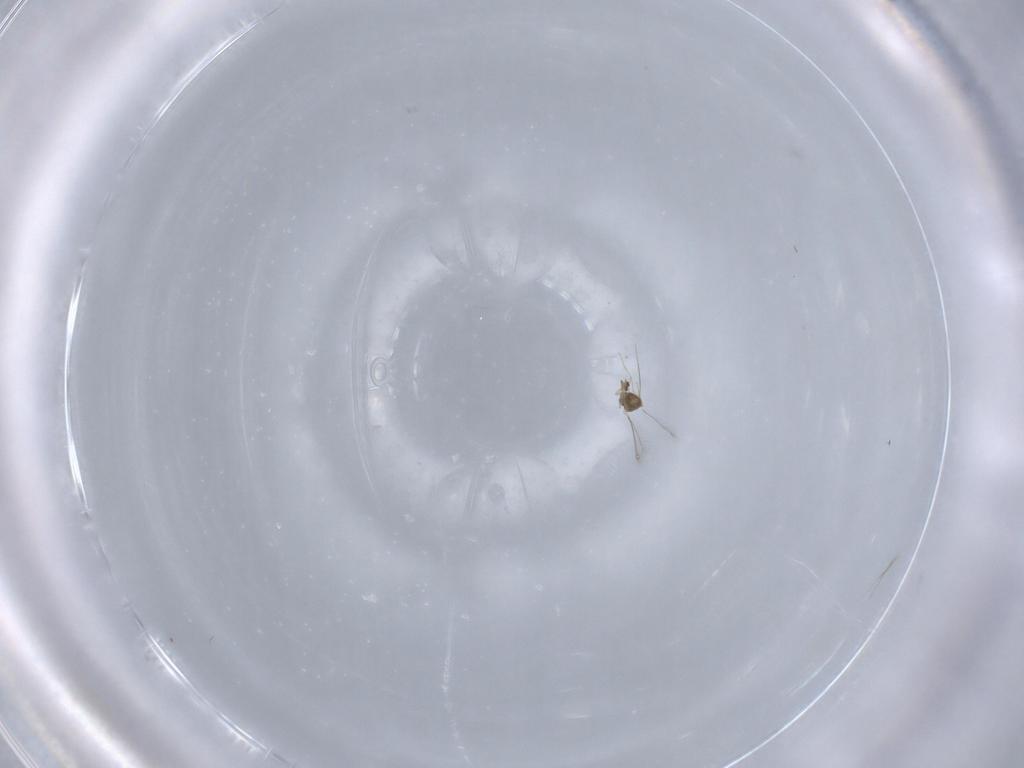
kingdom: Animalia
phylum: Arthropoda
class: Insecta
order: Hymenoptera
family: Mymaridae
